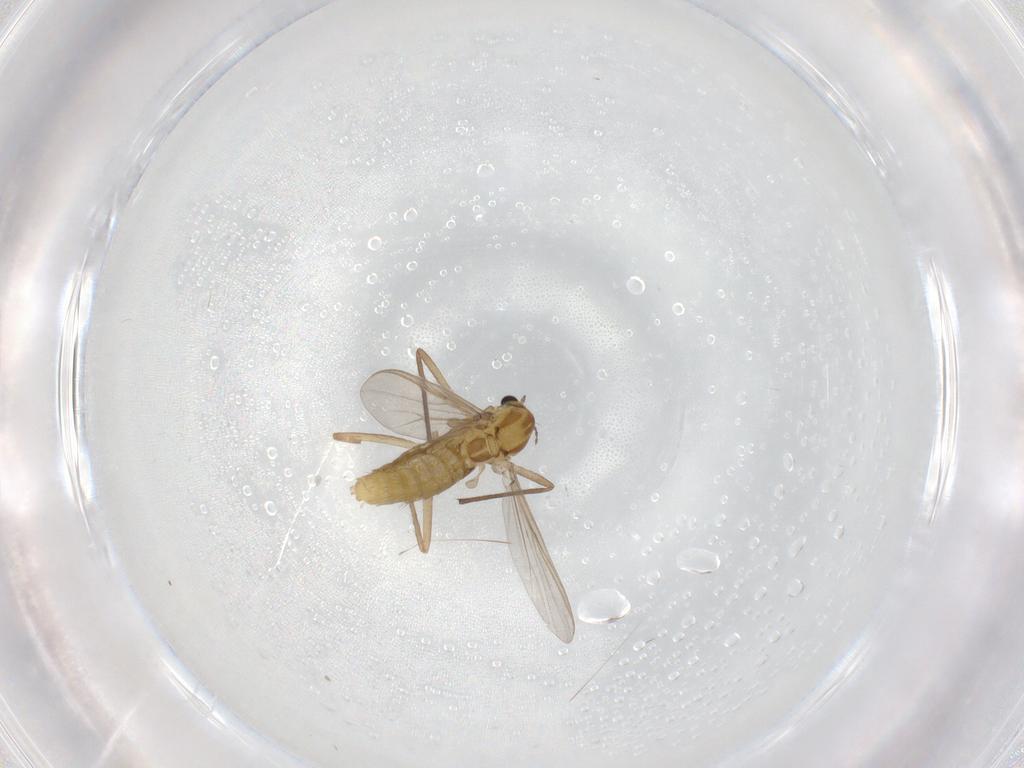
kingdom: Animalia
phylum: Arthropoda
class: Insecta
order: Diptera
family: Chironomidae
